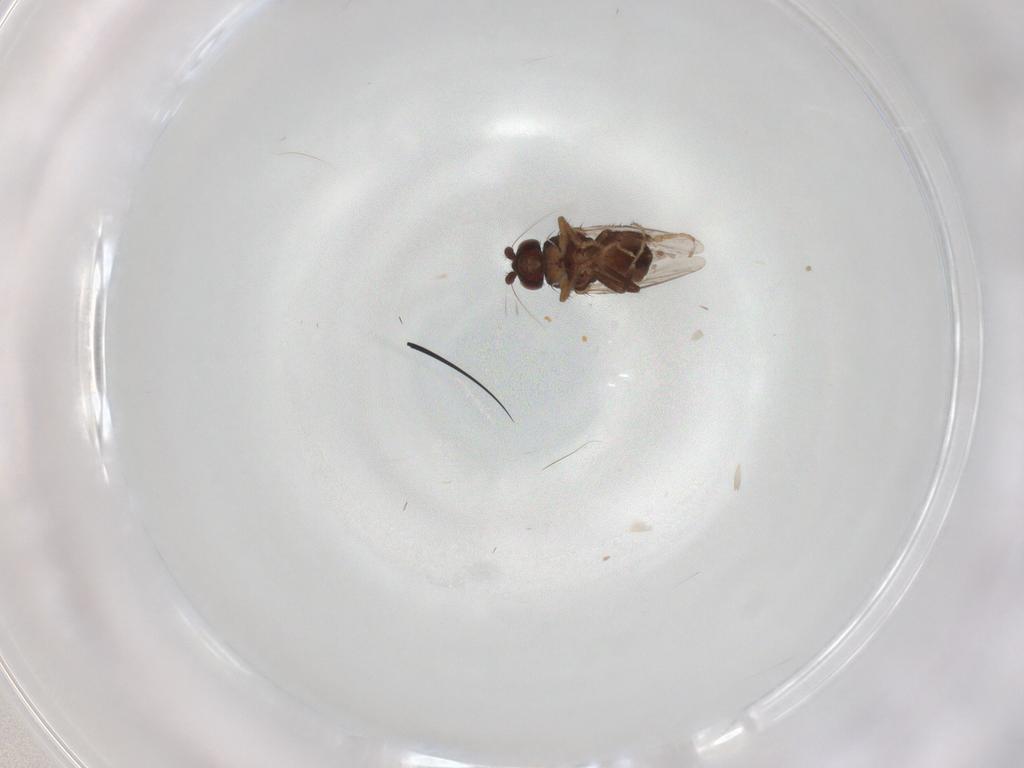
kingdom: Animalia
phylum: Arthropoda
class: Insecta
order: Diptera
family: Sphaeroceridae
